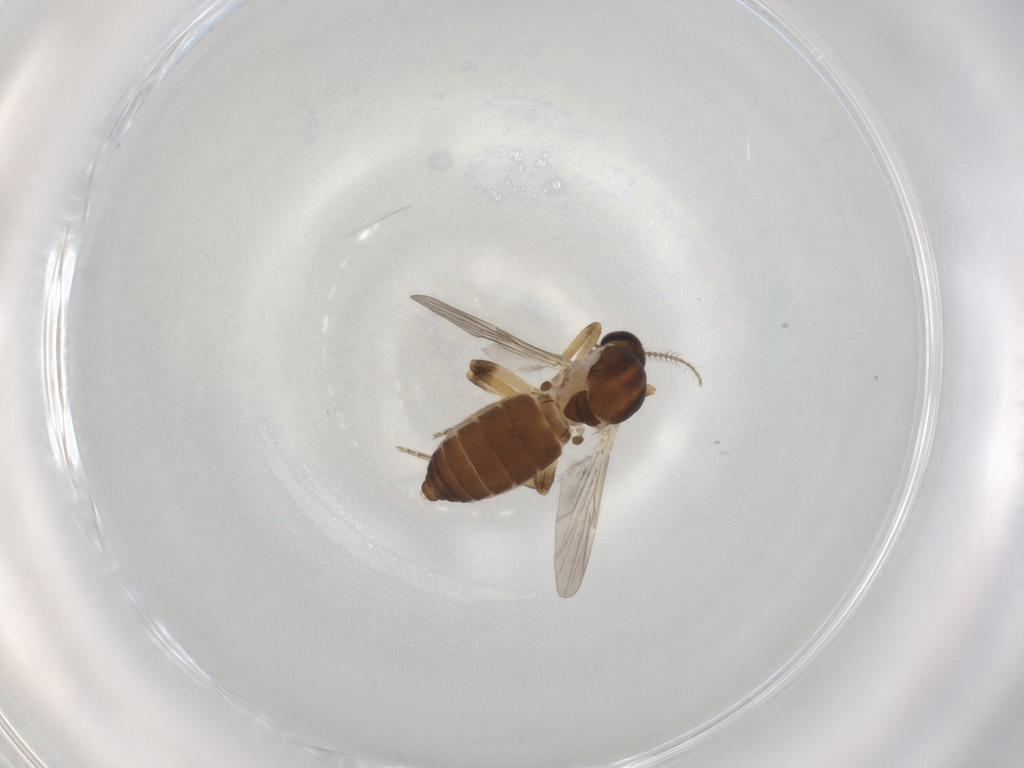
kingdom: Animalia
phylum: Arthropoda
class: Insecta
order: Diptera
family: Ceratopogonidae
